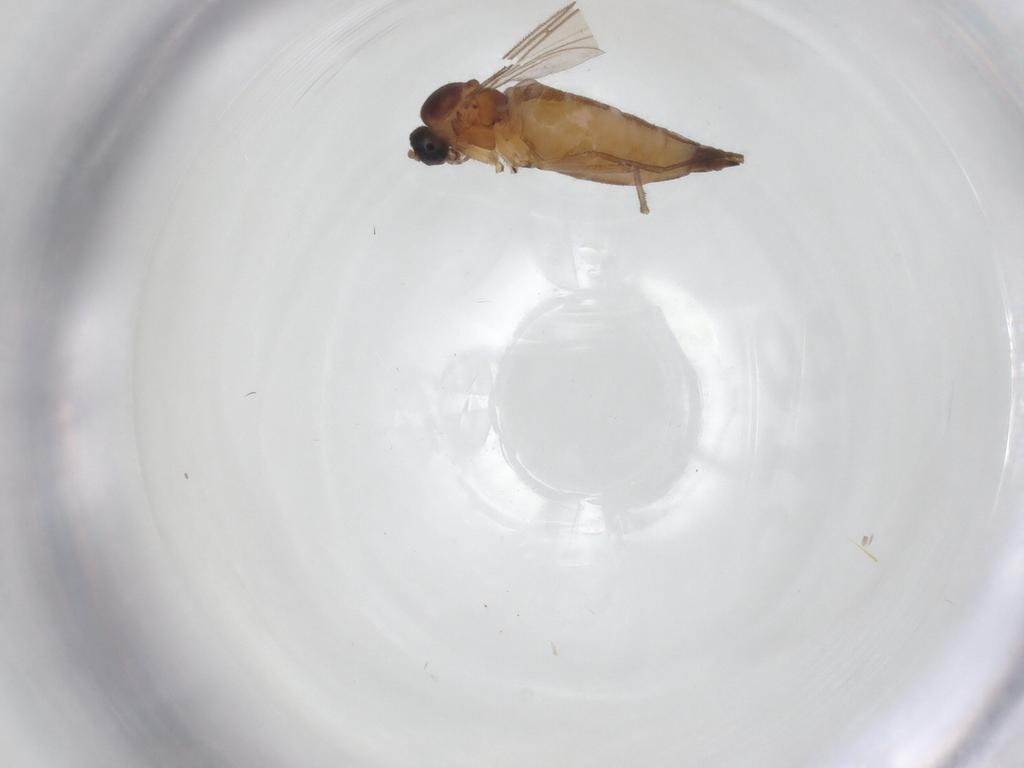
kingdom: Animalia
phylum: Arthropoda
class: Insecta
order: Diptera
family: Sciaridae
